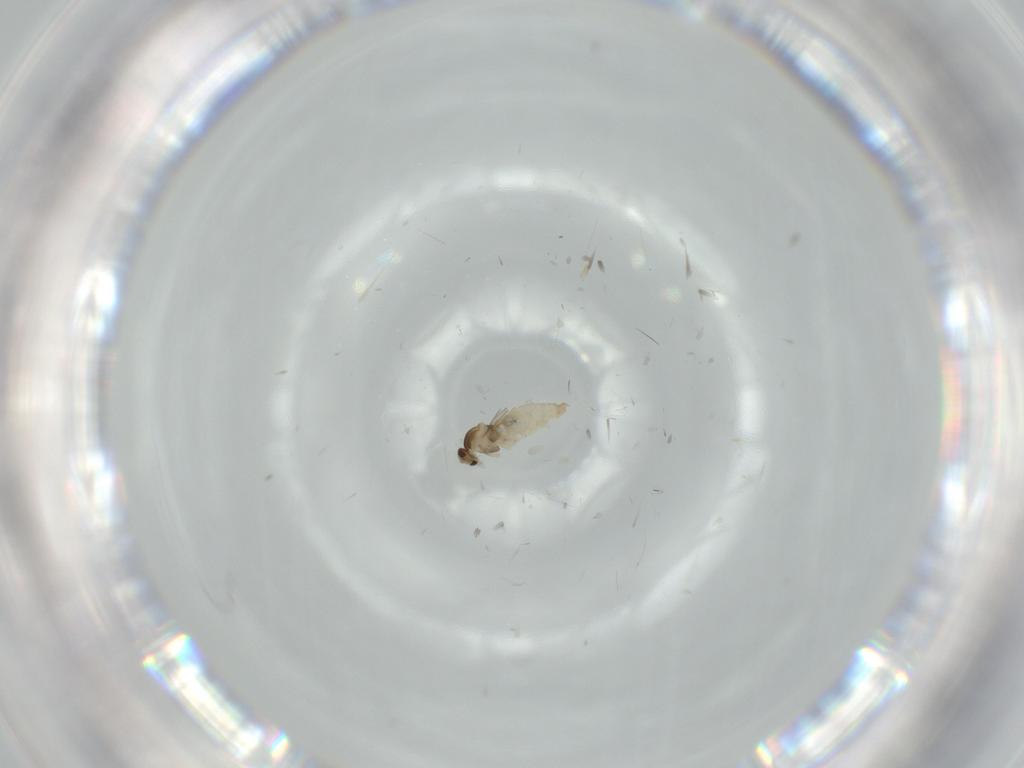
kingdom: Animalia
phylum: Arthropoda
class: Insecta
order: Diptera
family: Cecidomyiidae
